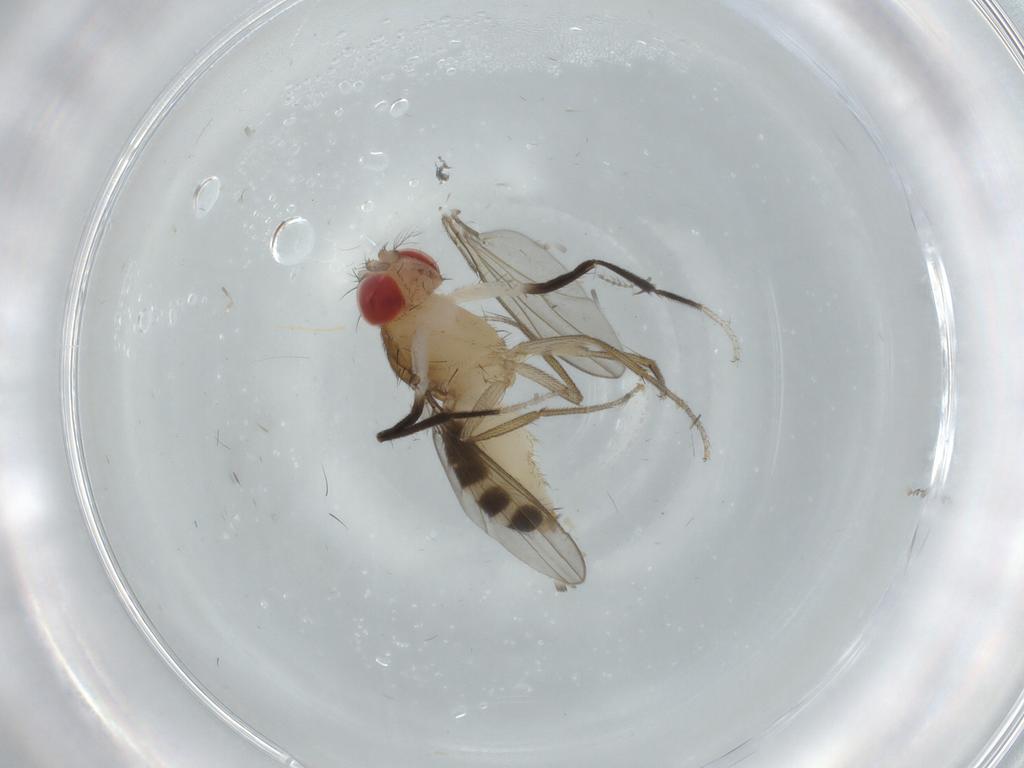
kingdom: Animalia
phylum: Arthropoda
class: Insecta
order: Diptera
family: Drosophilidae
